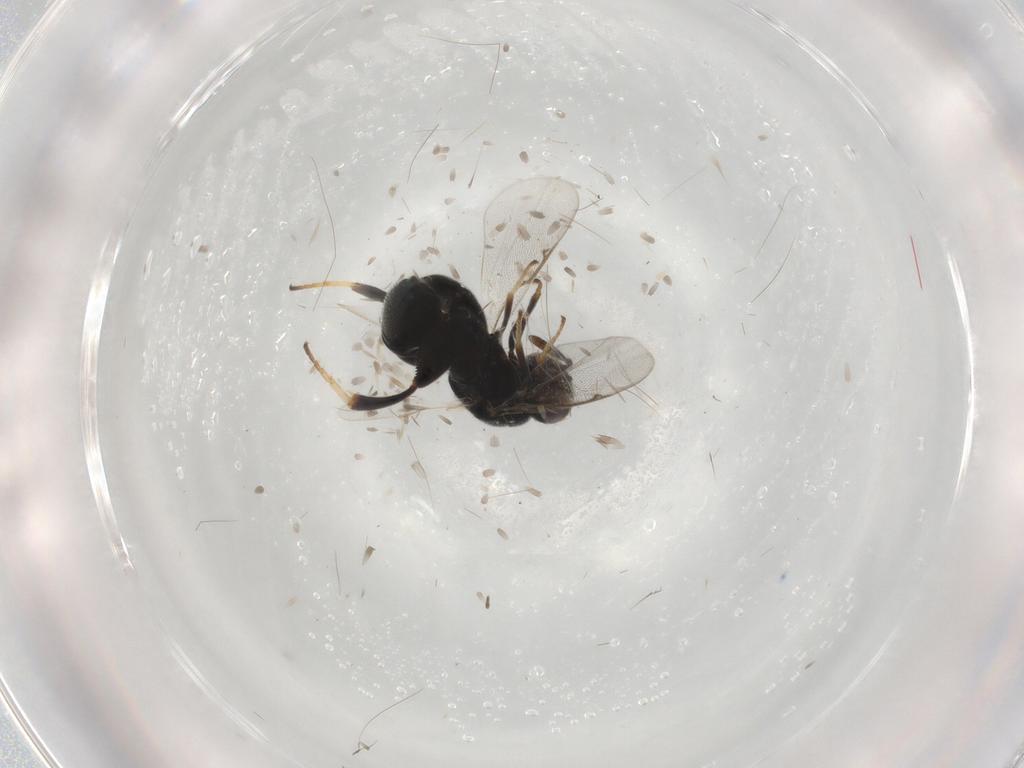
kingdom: Animalia
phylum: Arthropoda
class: Insecta
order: Hymenoptera
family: Torymidae
